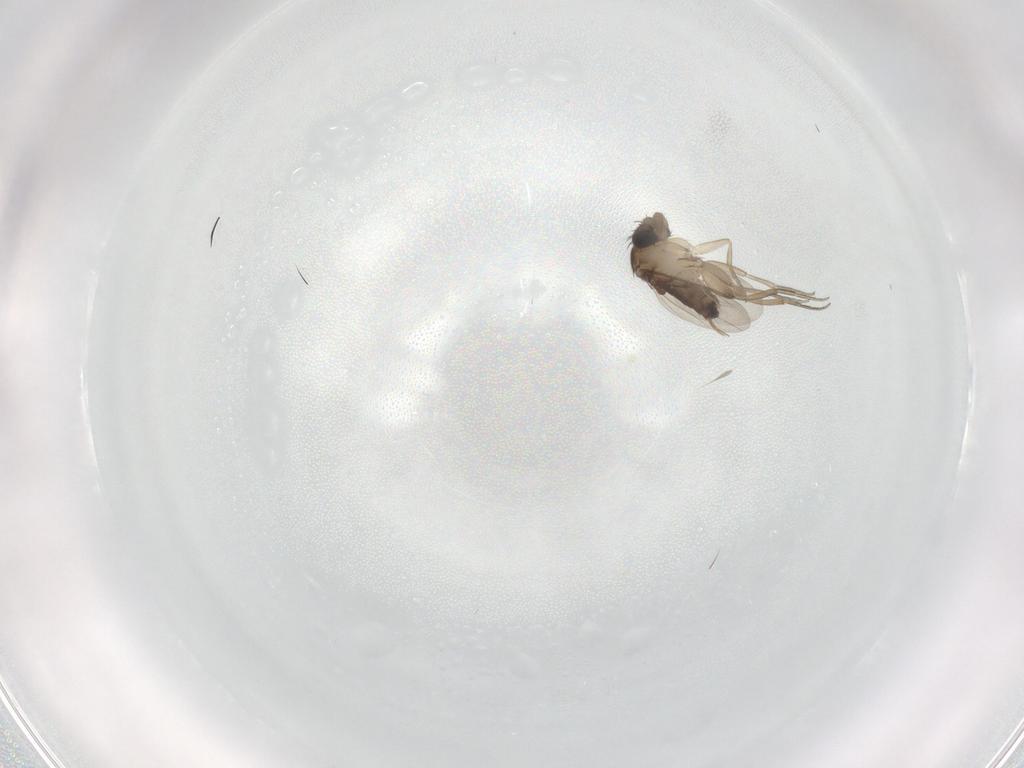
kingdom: Animalia
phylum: Arthropoda
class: Insecta
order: Diptera
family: Phoridae
